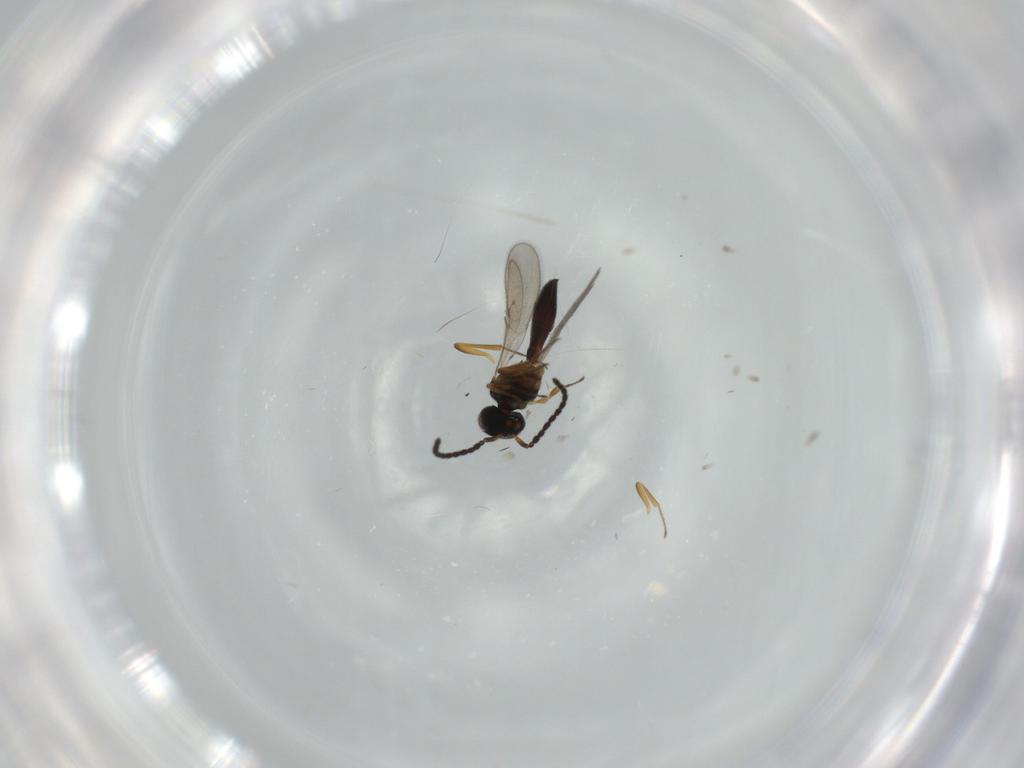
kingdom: Animalia
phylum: Arthropoda
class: Insecta
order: Hymenoptera
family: Scelionidae
